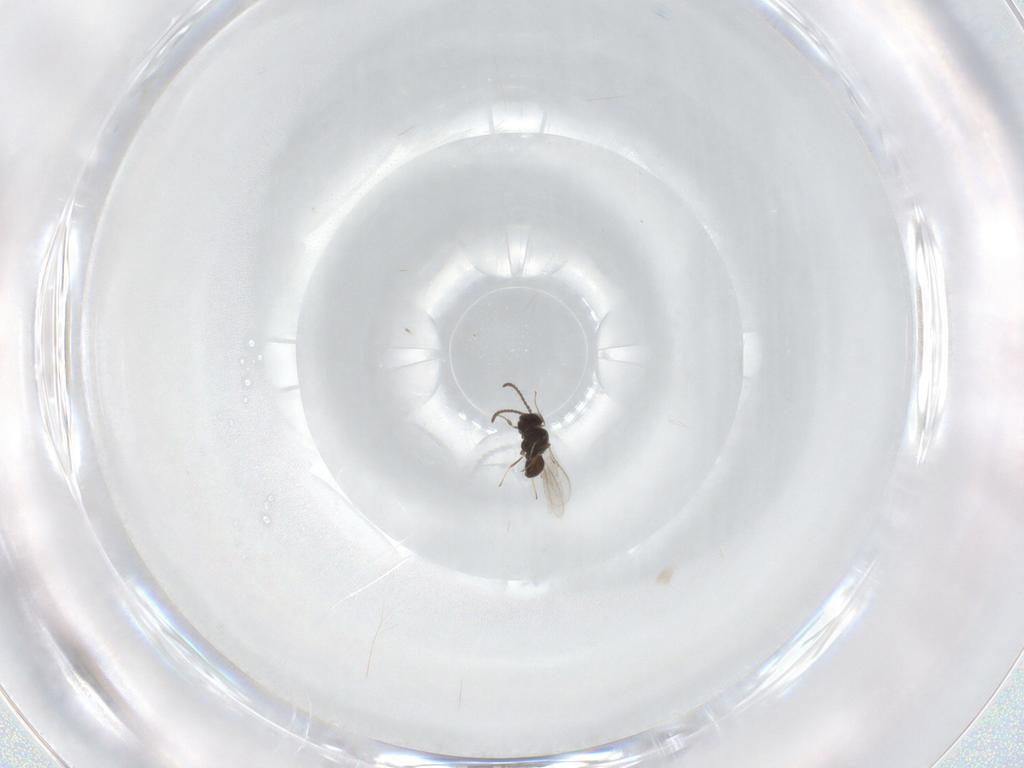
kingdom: Animalia
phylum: Arthropoda
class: Insecta
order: Hymenoptera
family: Scelionidae
